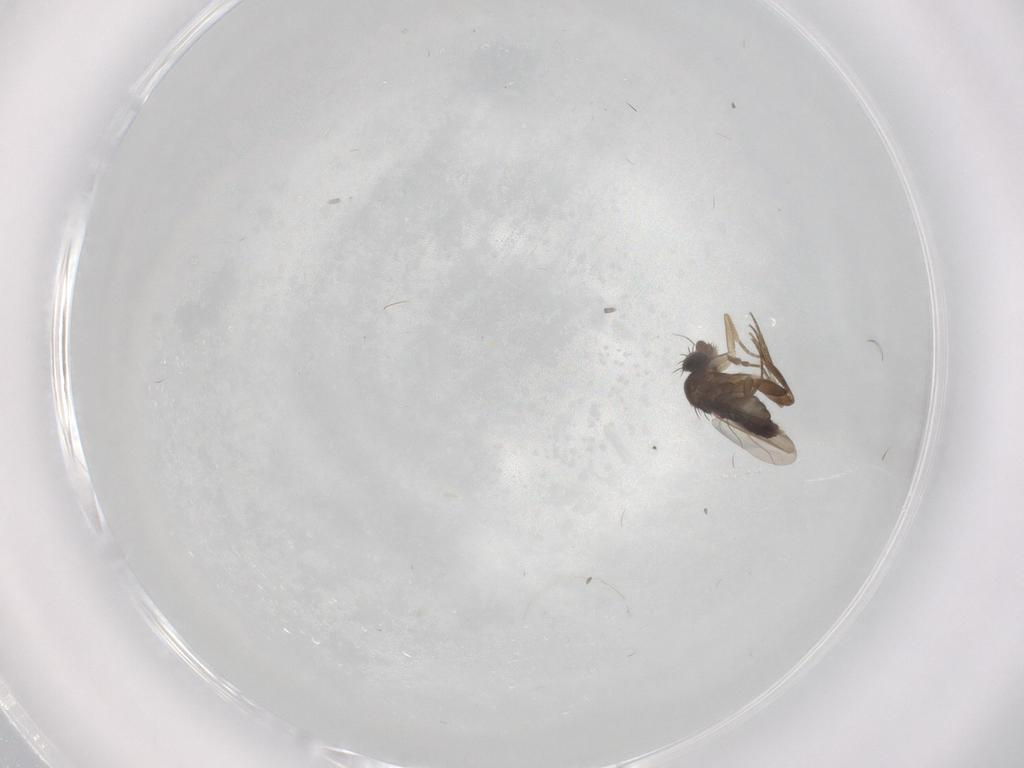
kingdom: Animalia
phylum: Arthropoda
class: Insecta
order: Diptera
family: Phoridae
